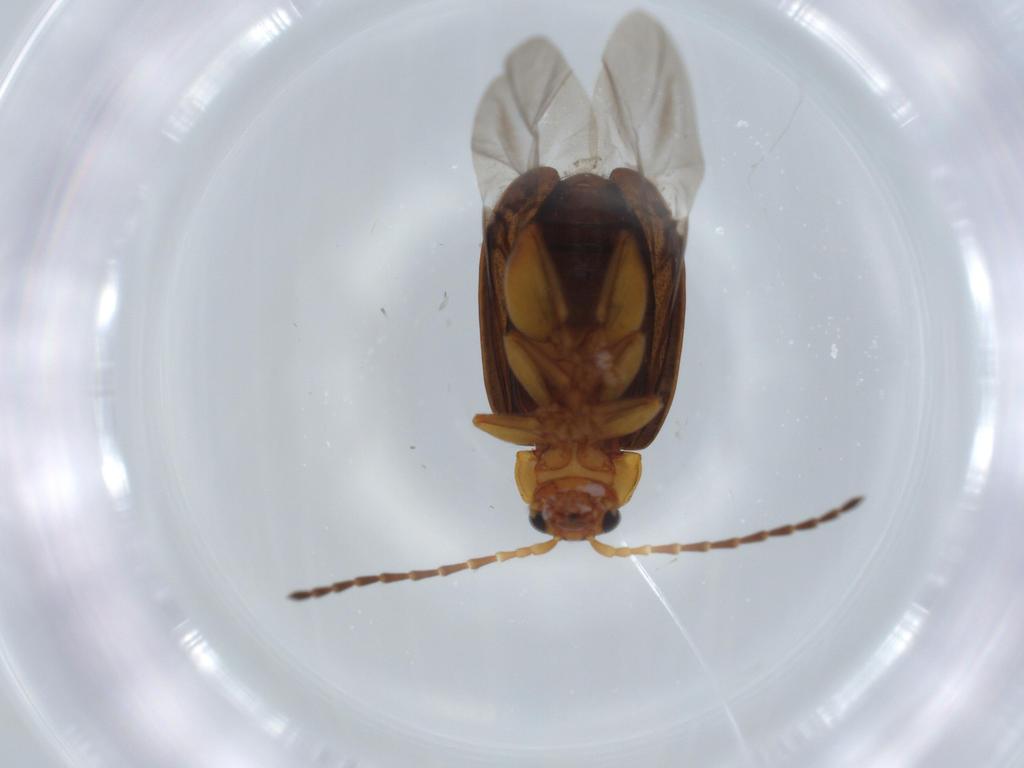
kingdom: Animalia
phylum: Arthropoda
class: Insecta
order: Coleoptera
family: Chrysomelidae
